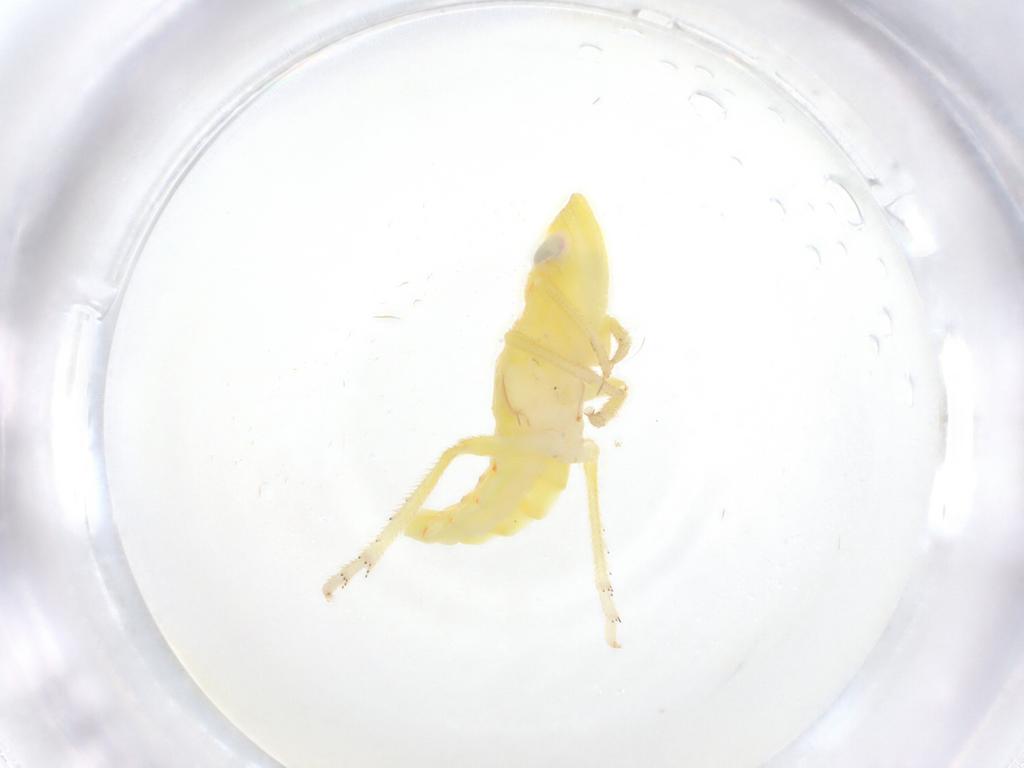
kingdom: Animalia
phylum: Arthropoda
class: Insecta
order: Hemiptera
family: Tropiduchidae
